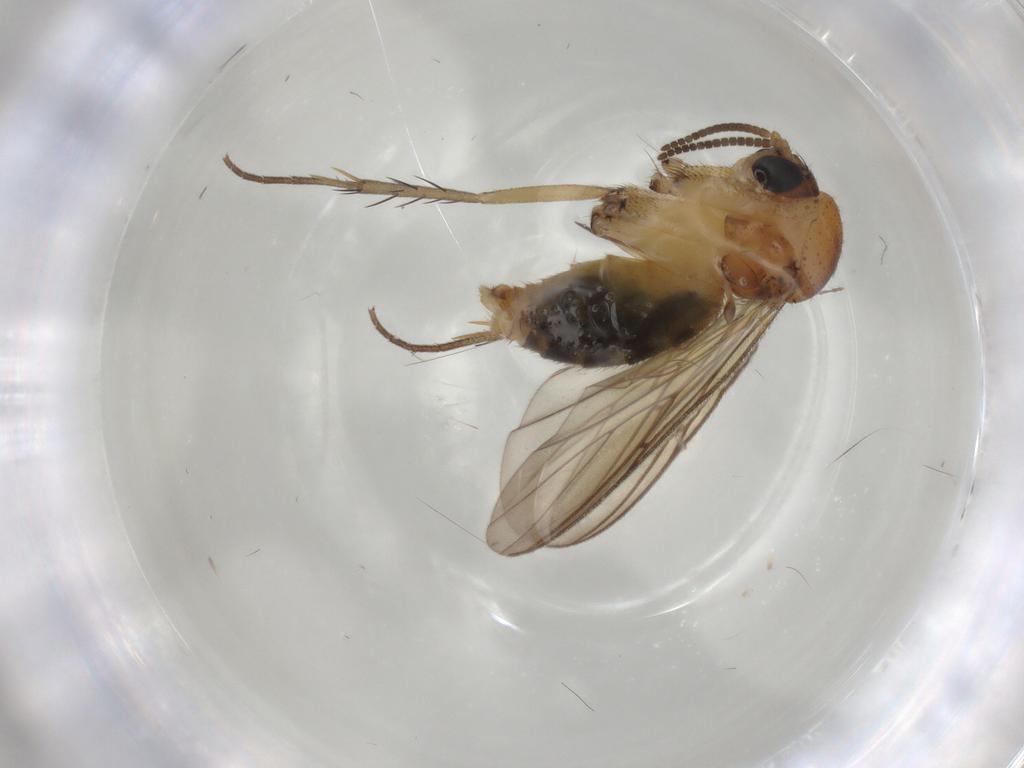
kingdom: Animalia
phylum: Arthropoda
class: Insecta
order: Diptera
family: Mycetophilidae
